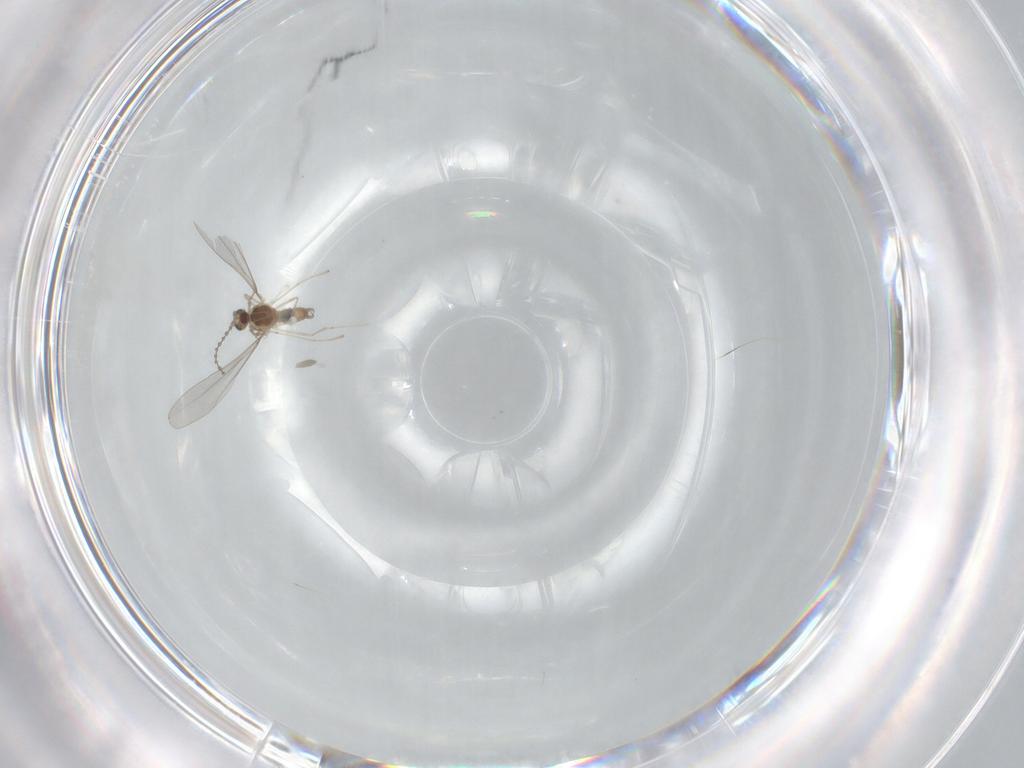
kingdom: Animalia
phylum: Arthropoda
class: Insecta
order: Diptera
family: Cecidomyiidae
